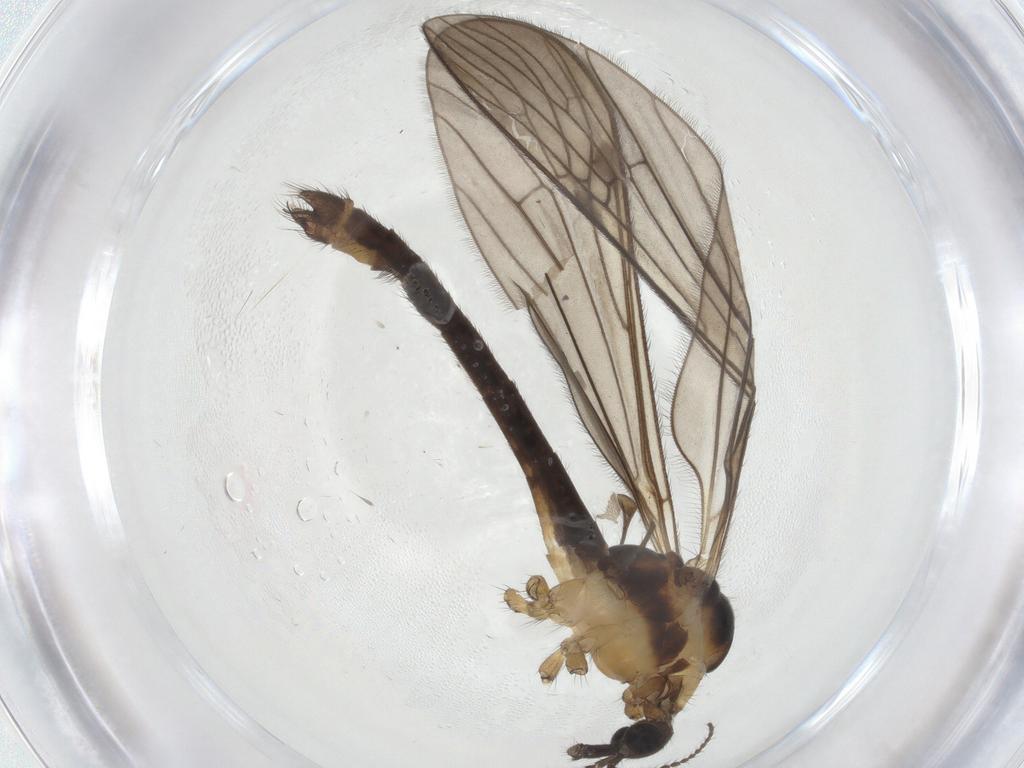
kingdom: Animalia
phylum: Arthropoda
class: Insecta
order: Diptera
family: Limoniidae
